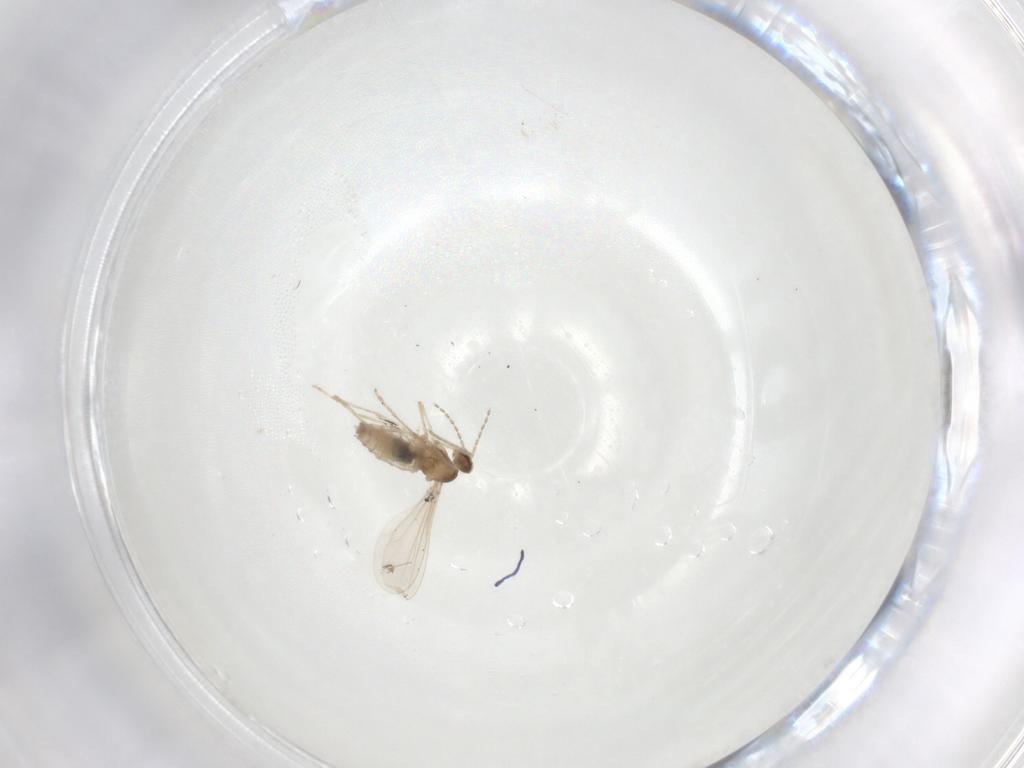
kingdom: Animalia
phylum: Arthropoda
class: Insecta
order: Diptera
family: Cecidomyiidae
